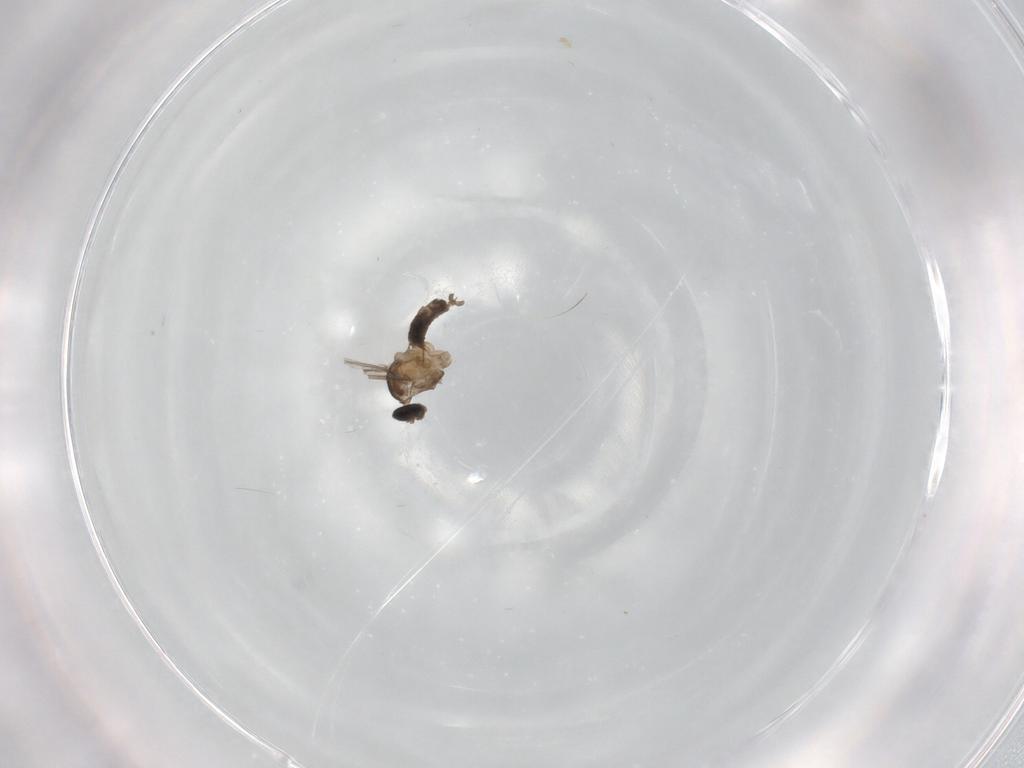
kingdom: Animalia
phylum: Arthropoda
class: Insecta
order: Diptera
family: Cecidomyiidae
